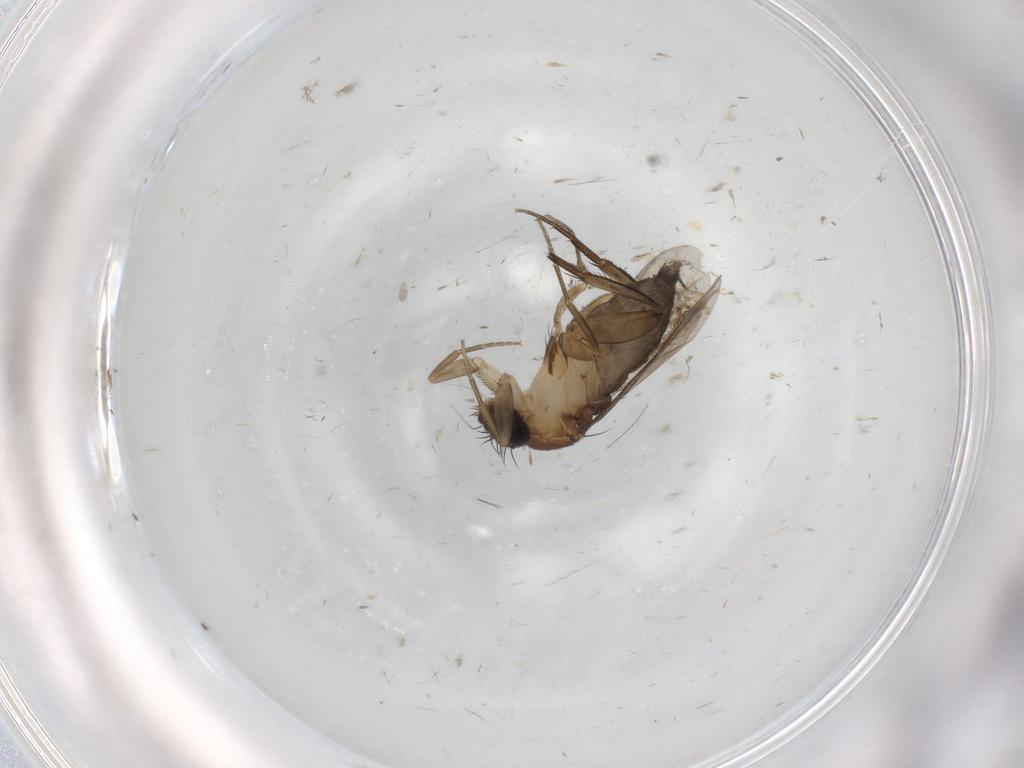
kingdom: Animalia
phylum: Arthropoda
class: Insecta
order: Diptera
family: Phoridae
